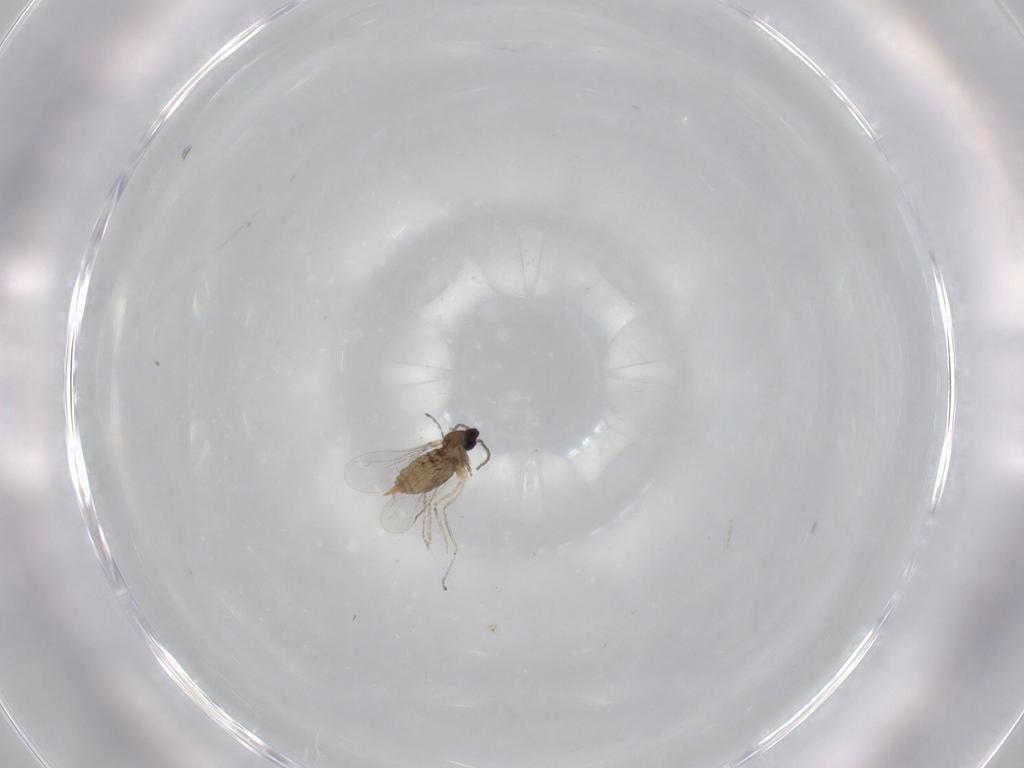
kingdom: Animalia
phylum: Arthropoda
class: Insecta
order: Diptera
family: Cecidomyiidae
